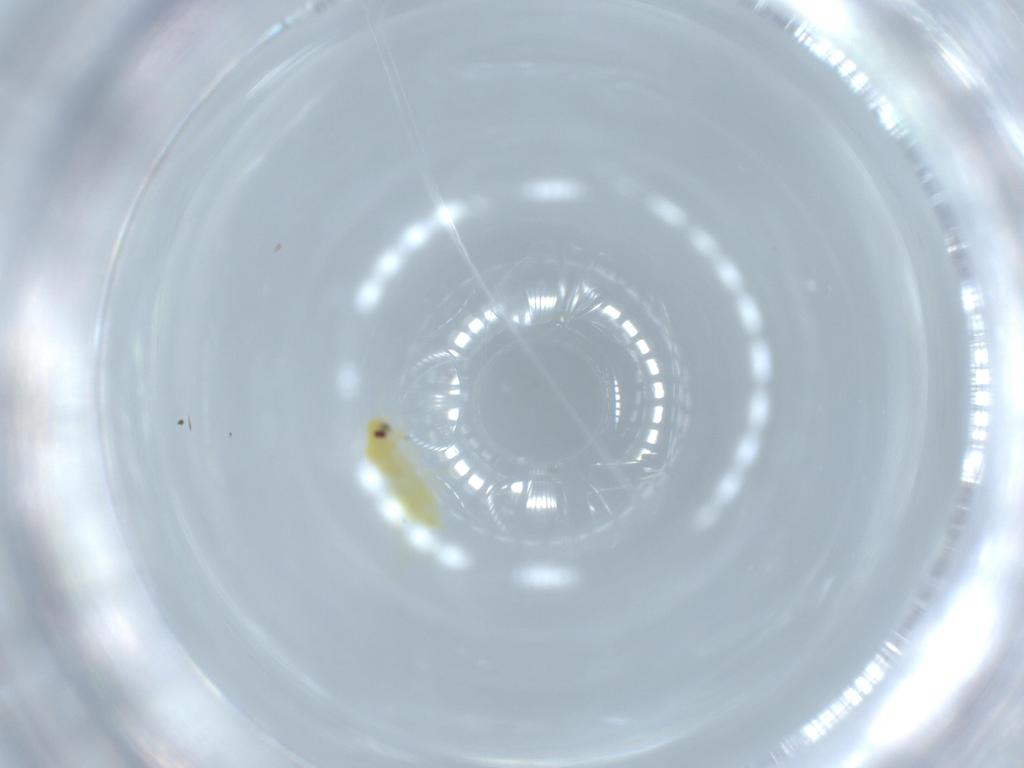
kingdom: Animalia
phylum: Arthropoda
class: Insecta
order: Hemiptera
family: Aleyrodidae
